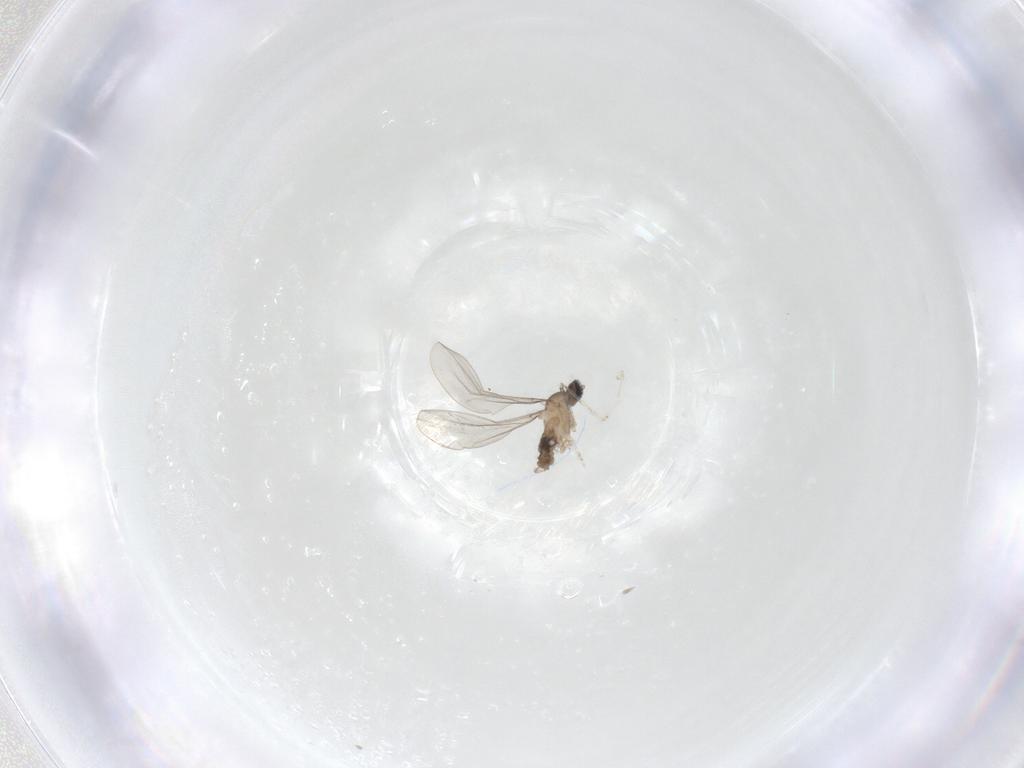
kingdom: Animalia
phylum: Arthropoda
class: Insecta
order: Diptera
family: Cecidomyiidae
